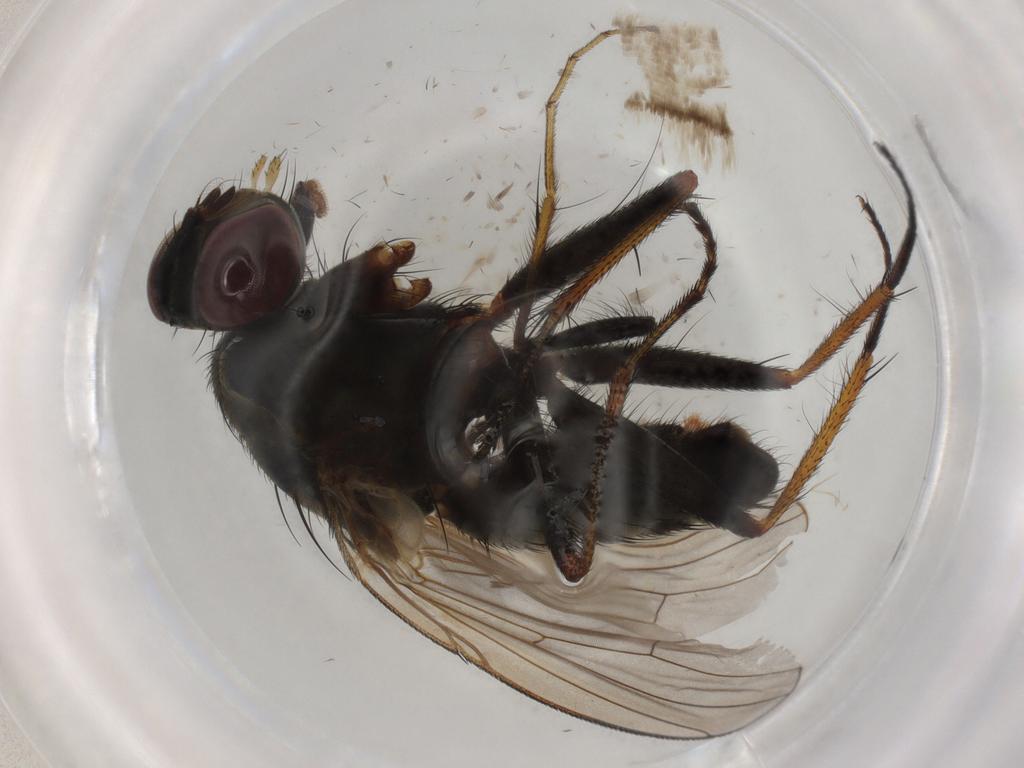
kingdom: Animalia
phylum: Arthropoda
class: Insecta
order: Diptera
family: Muscidae
